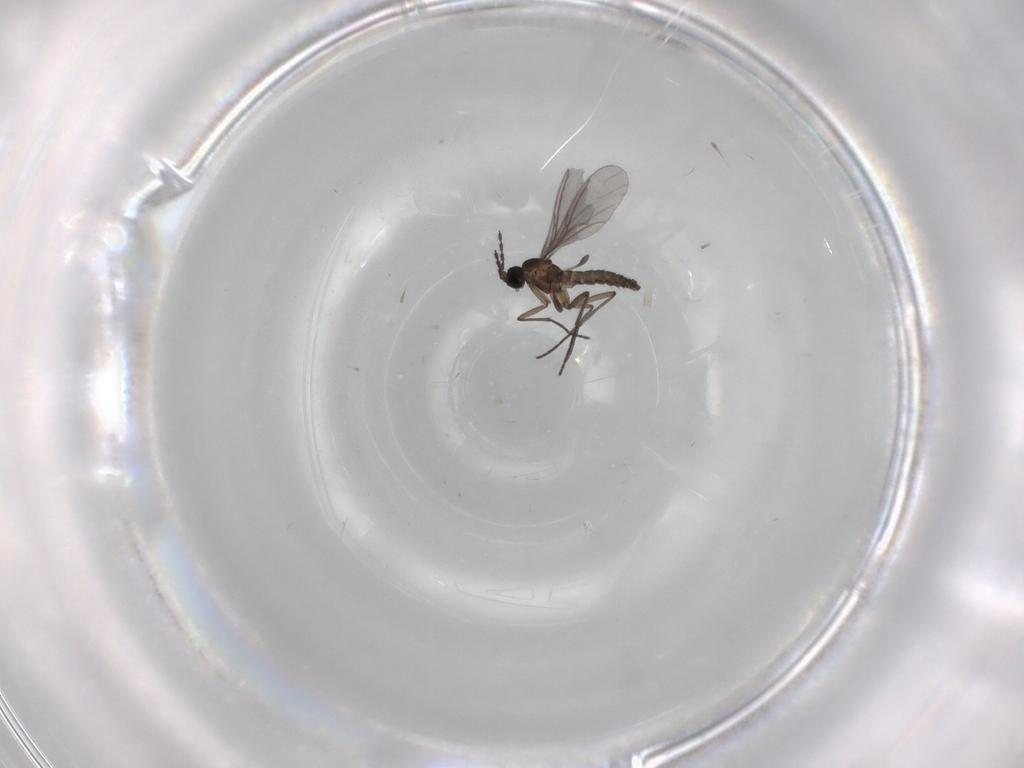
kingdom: Animalia
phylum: Arthropoda
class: Insecta
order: Diptera
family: Sciaridae
